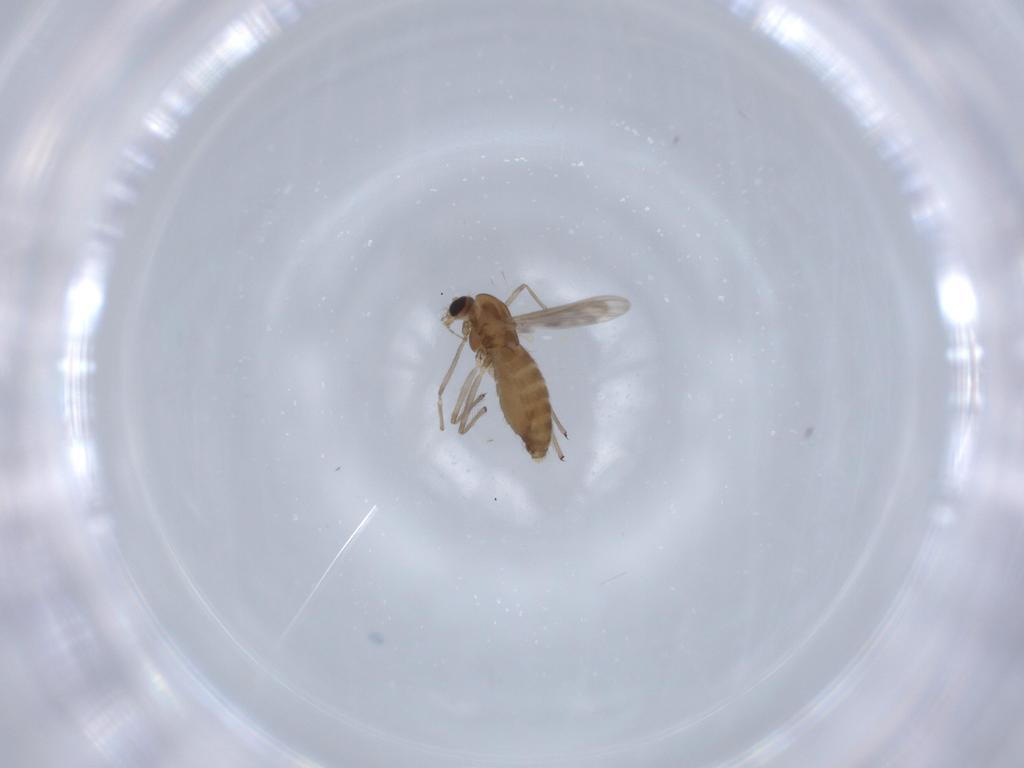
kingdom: Animalia
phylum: Arthropoda
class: Insecta
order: Diptera
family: Chironomidae
